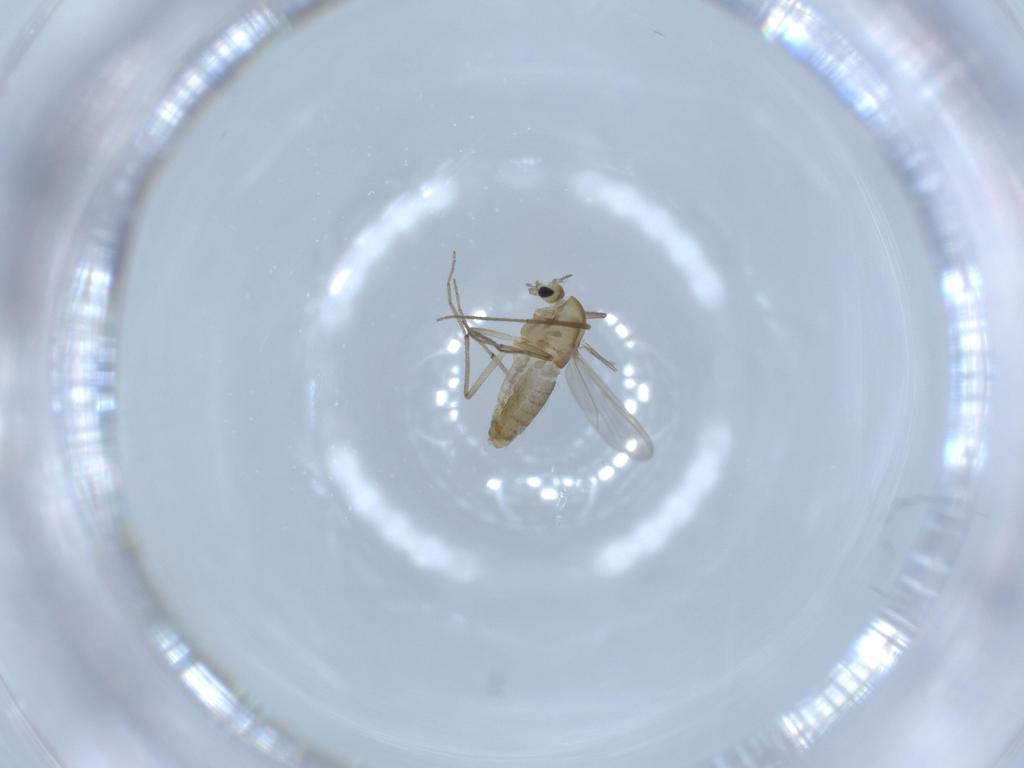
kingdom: Animalia
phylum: Arthropoda
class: Insecta
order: Diptera
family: Chironomidae
